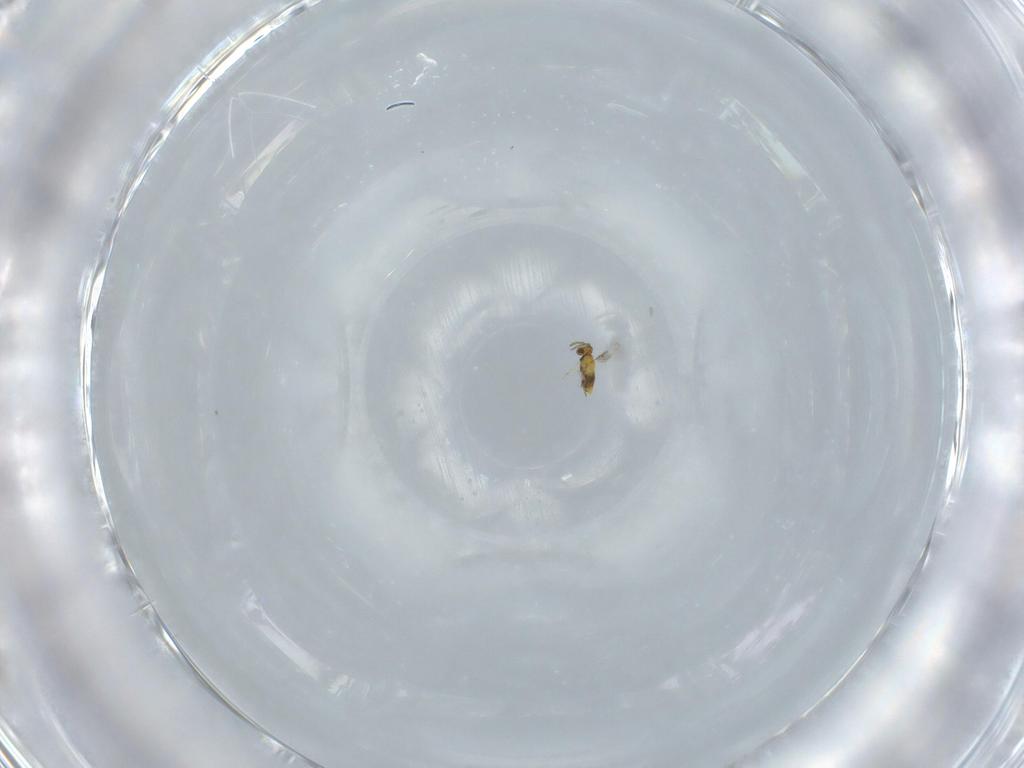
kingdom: Animalia
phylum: Arthropoda
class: Insecta
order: Hymenoptera
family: Aphelinidae
